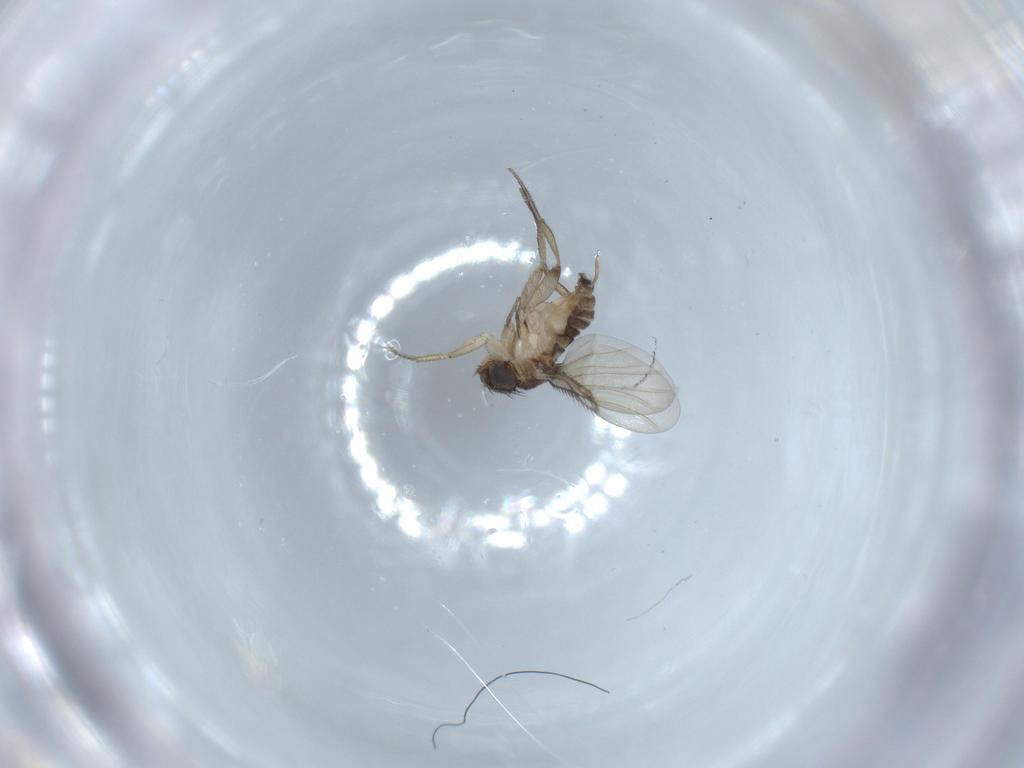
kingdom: Animalia
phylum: Arthropoda
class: Insecta
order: Diptera
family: Phoridae
